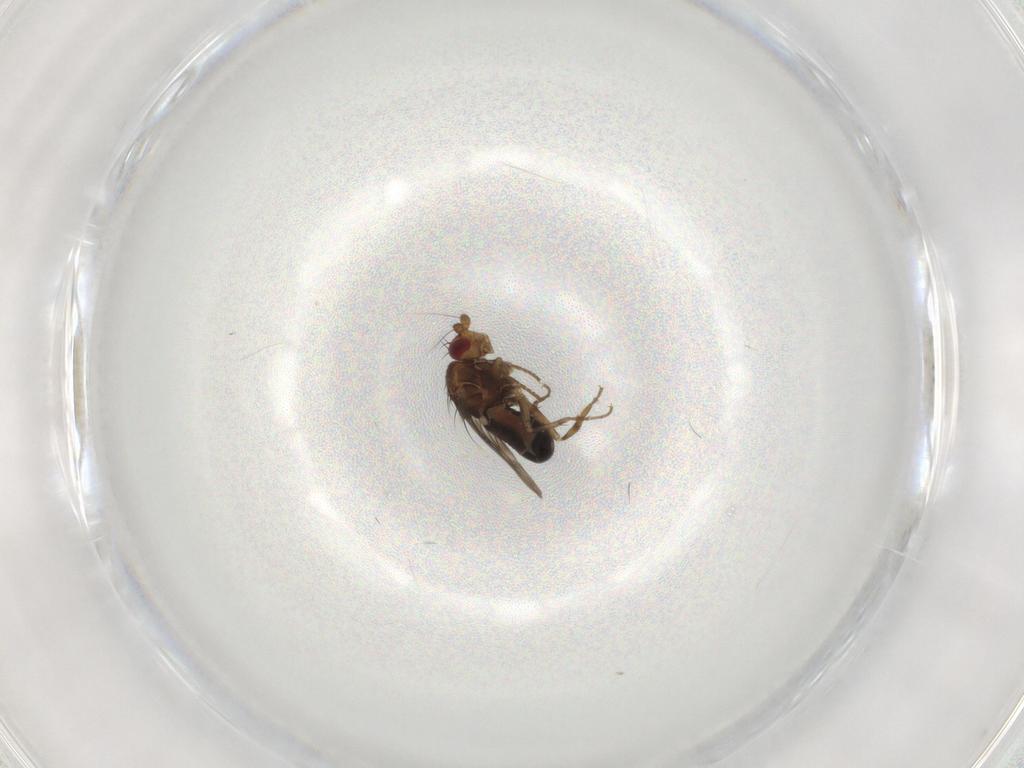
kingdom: Animalia
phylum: Arthropoda
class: Insecta
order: Diptera
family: Sphaeroceridae
